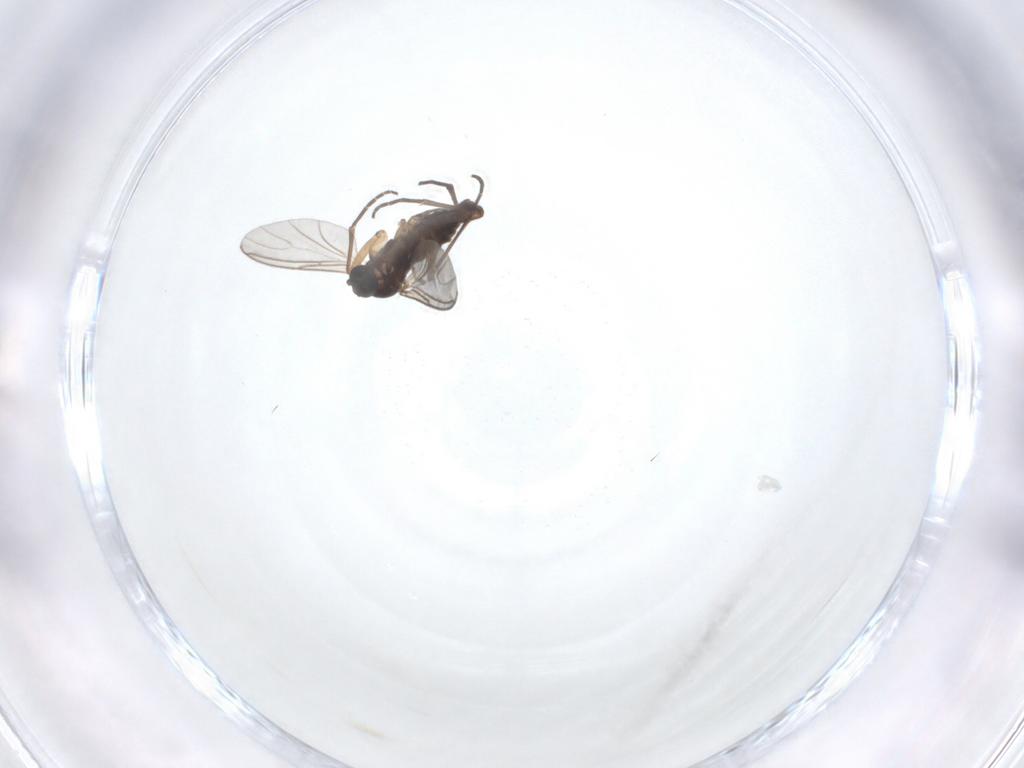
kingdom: Animalia
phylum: Arthropoda
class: Insecta
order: Diptera
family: Sciaridae
